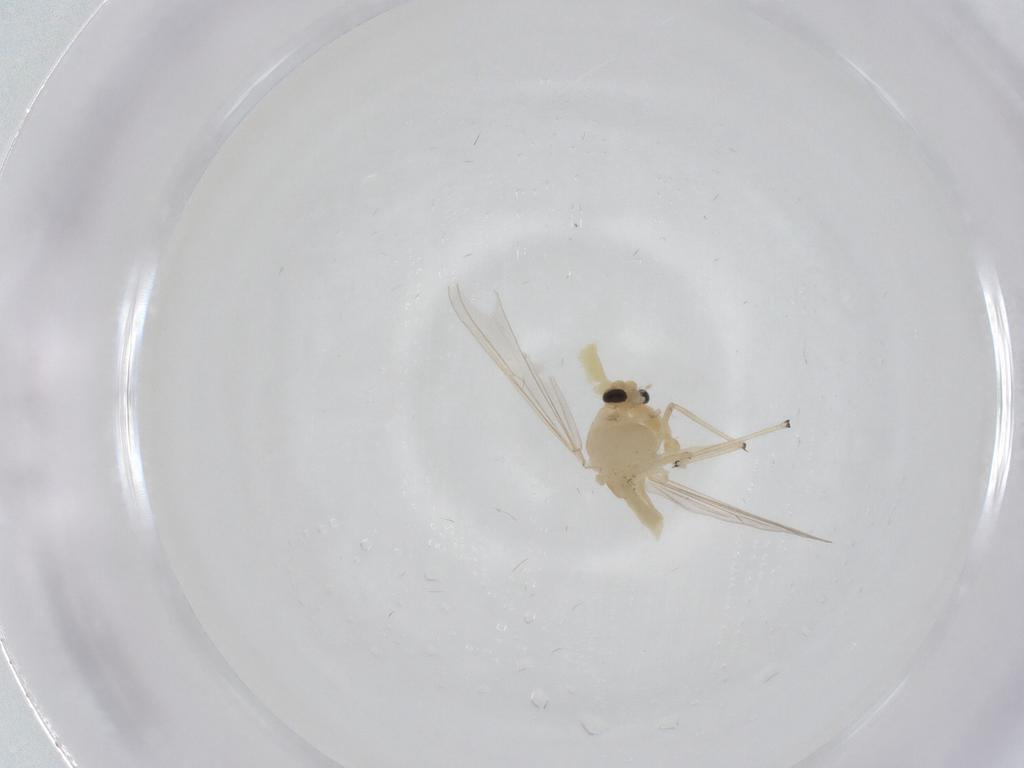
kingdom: Animalia
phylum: Arthropoda
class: Insecta
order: Diptera
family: Chironomidae
